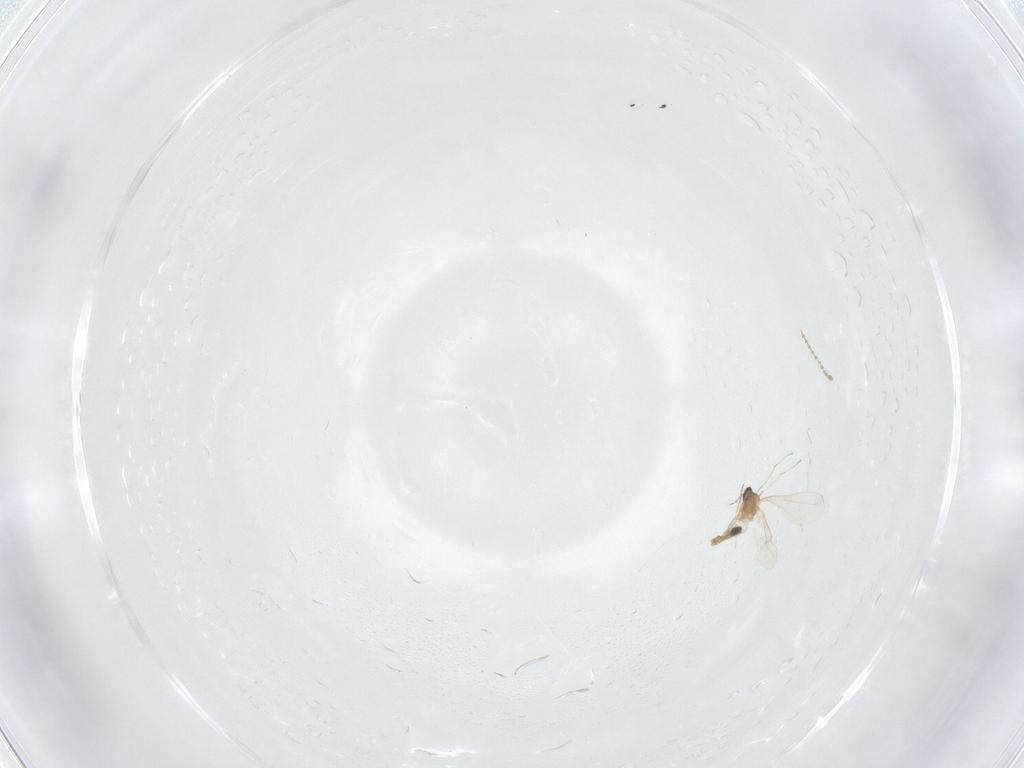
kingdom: Animalia
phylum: Arthropoda
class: Insecta
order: Diptera
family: Cecidomyiidae
